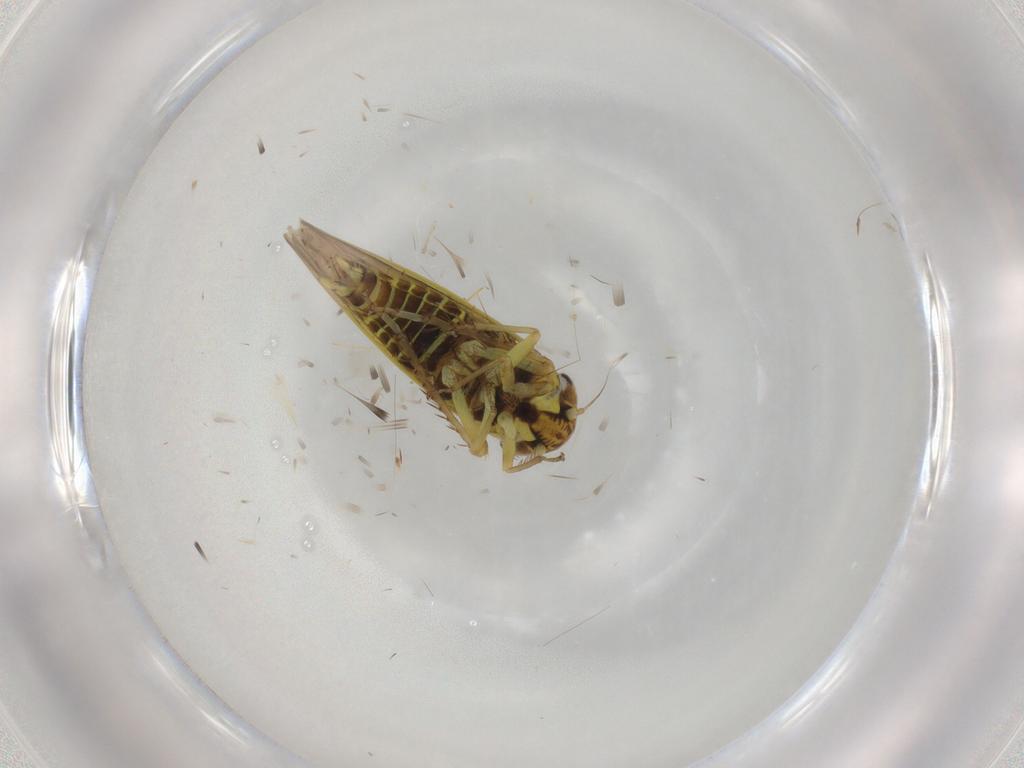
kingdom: Animalia
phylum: Arthropoda
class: Insecta
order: Hemiptera
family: Cicadellidae
